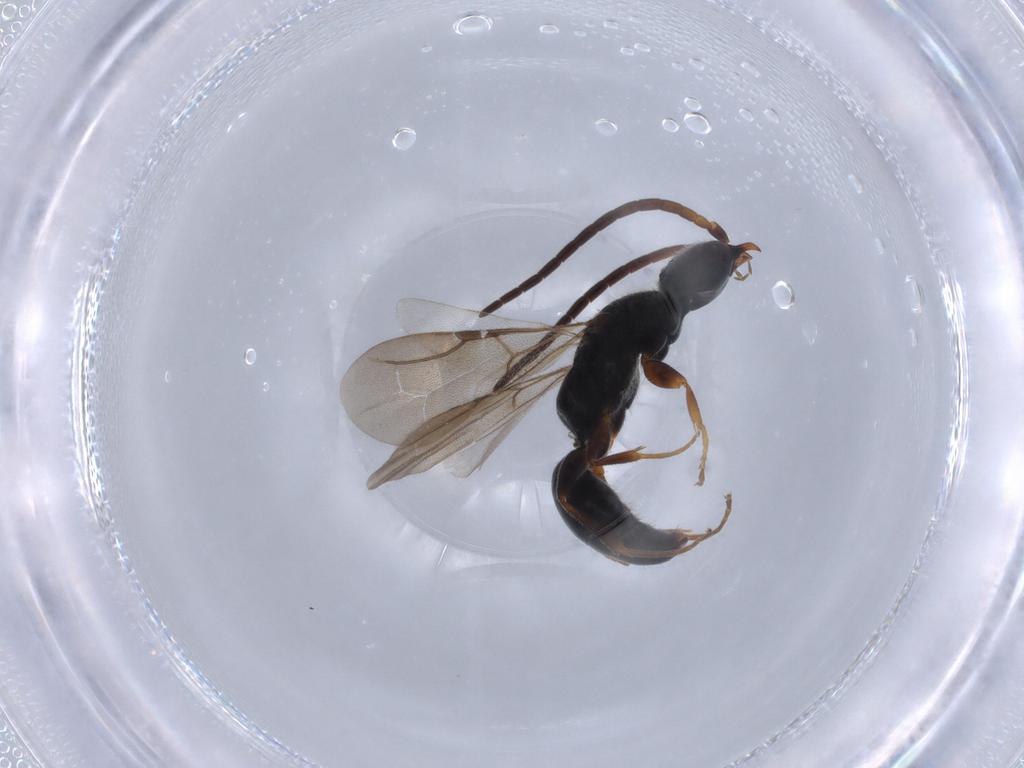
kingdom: Animalia
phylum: Arthropoda
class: Insecta
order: Hymenoptera
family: Bethylidae
